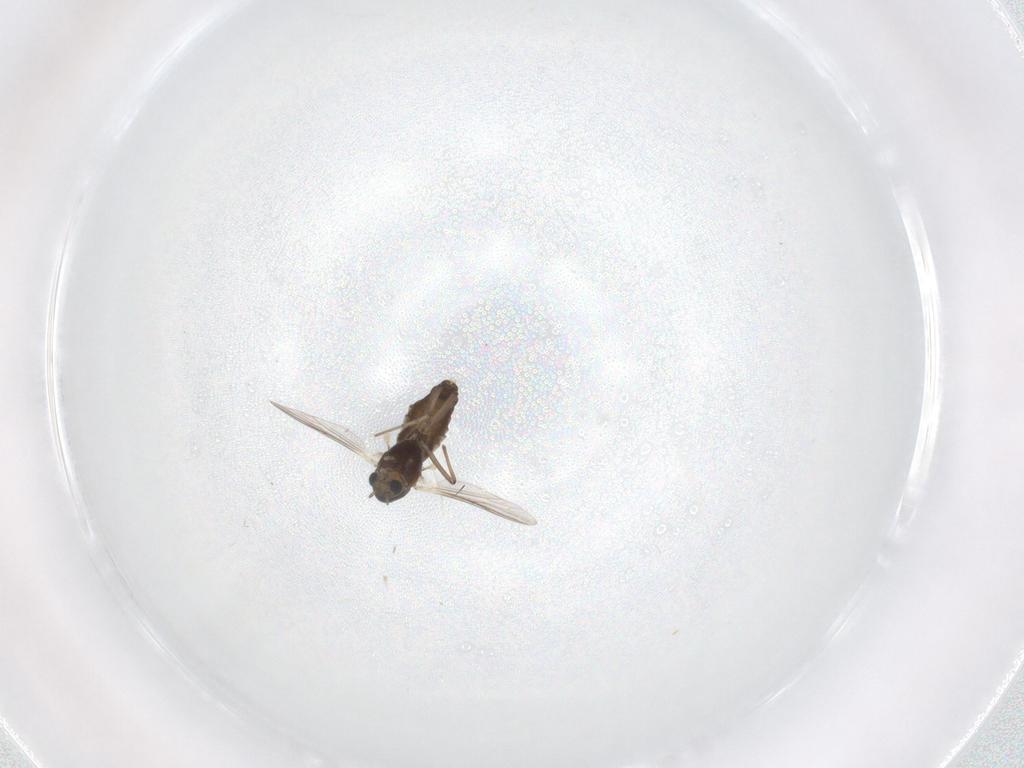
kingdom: Animalia
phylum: Arthropoda
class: Insecta
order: Diptera
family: Chironomidae
